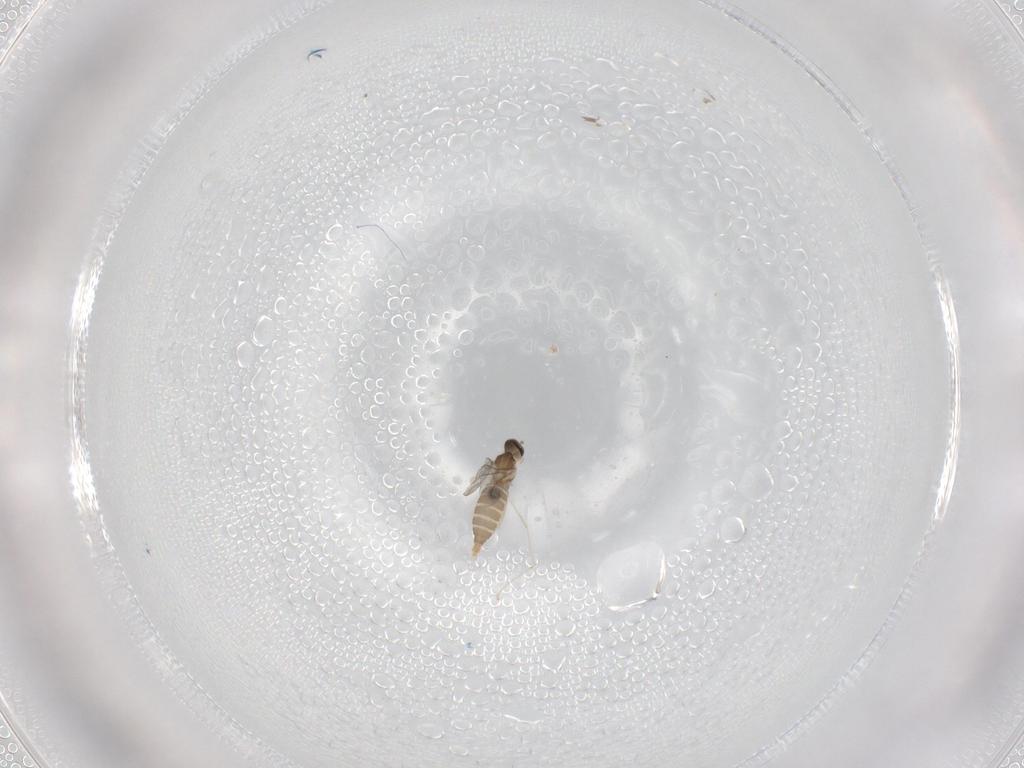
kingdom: Animalia
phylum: Arthropoda
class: Insecta
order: Diptera
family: Cecidomyiidae
